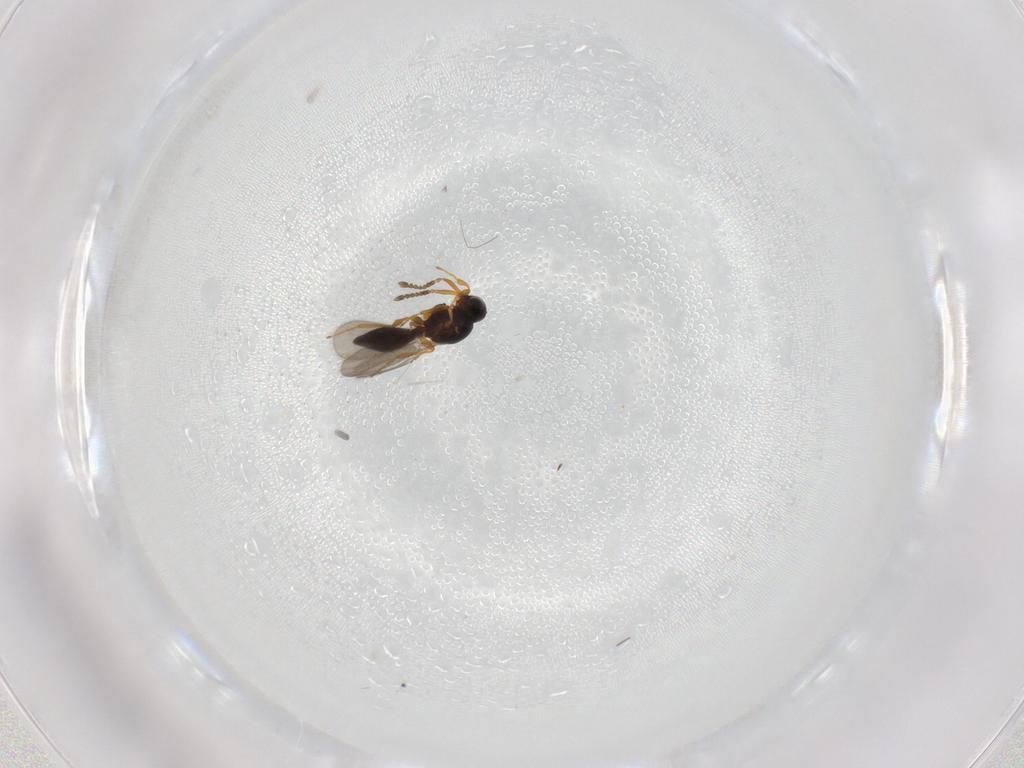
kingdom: Animalia
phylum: Arthropoda
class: Insecta
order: Hymenoptera
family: Platygastridae
